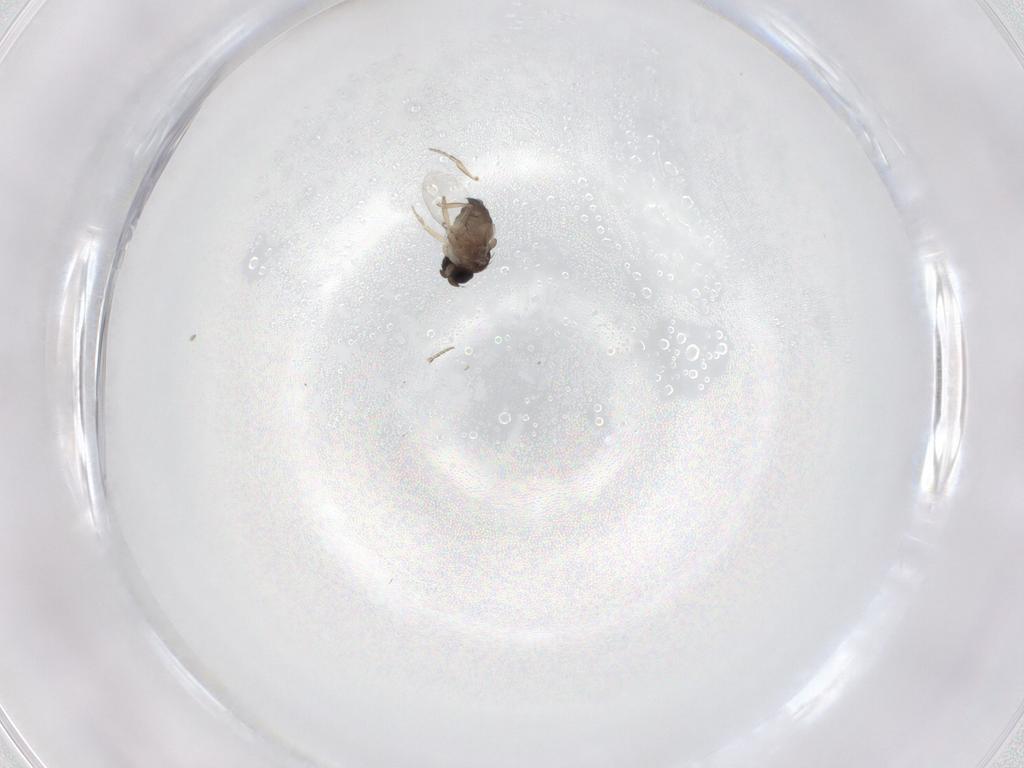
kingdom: Animalia
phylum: Arthropoda
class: Insecta
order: Diptera
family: Phoridae
